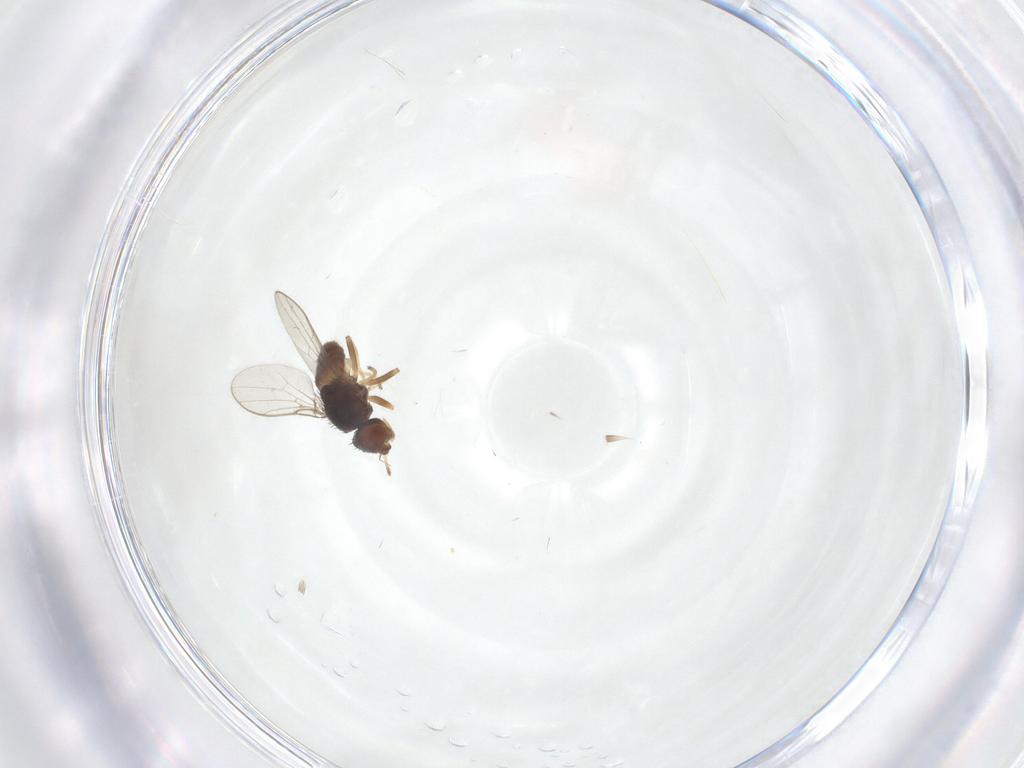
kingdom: Animalia
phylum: Arthropoda
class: Insecta
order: Diptera
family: Chloropidae
